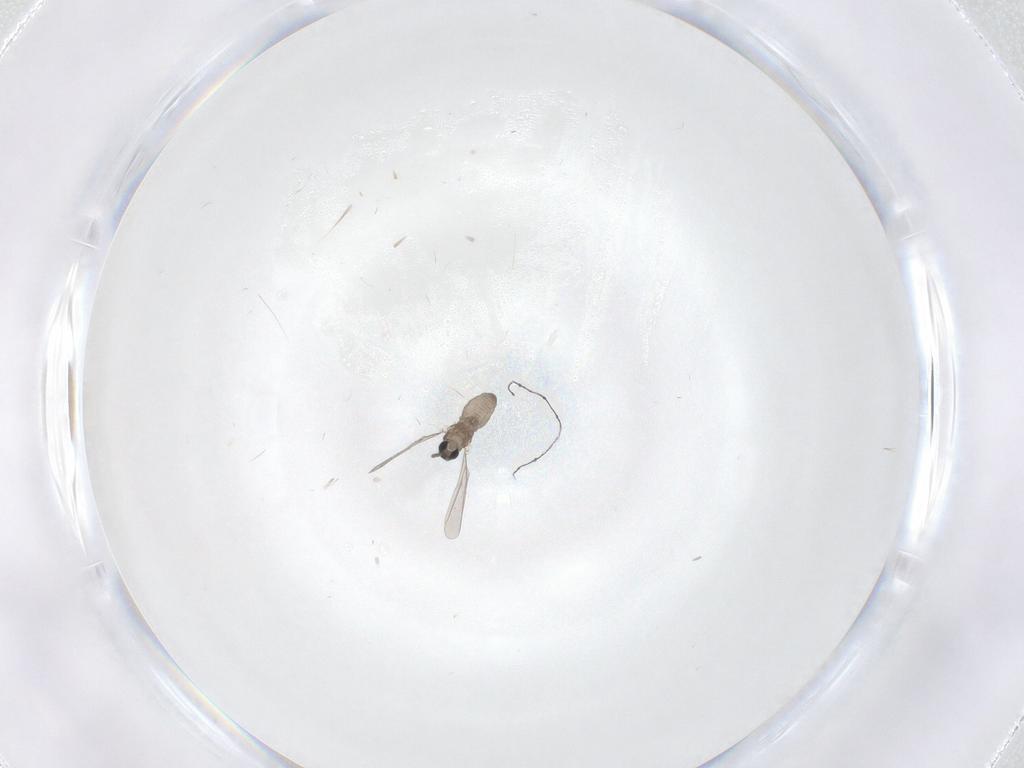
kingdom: Animalia
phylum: Arthropoda
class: Insecta
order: Diptera
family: Cecidomyiidae
